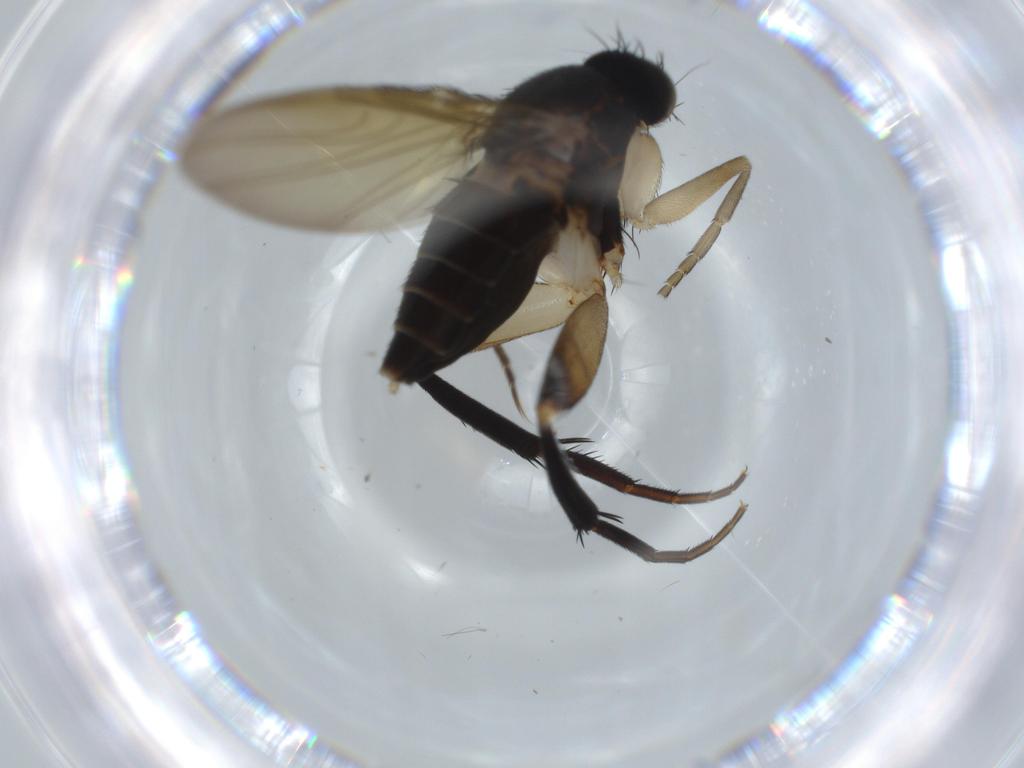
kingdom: Animalia
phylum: Arthropoda
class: Insecta
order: Diptera
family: Phoridae
